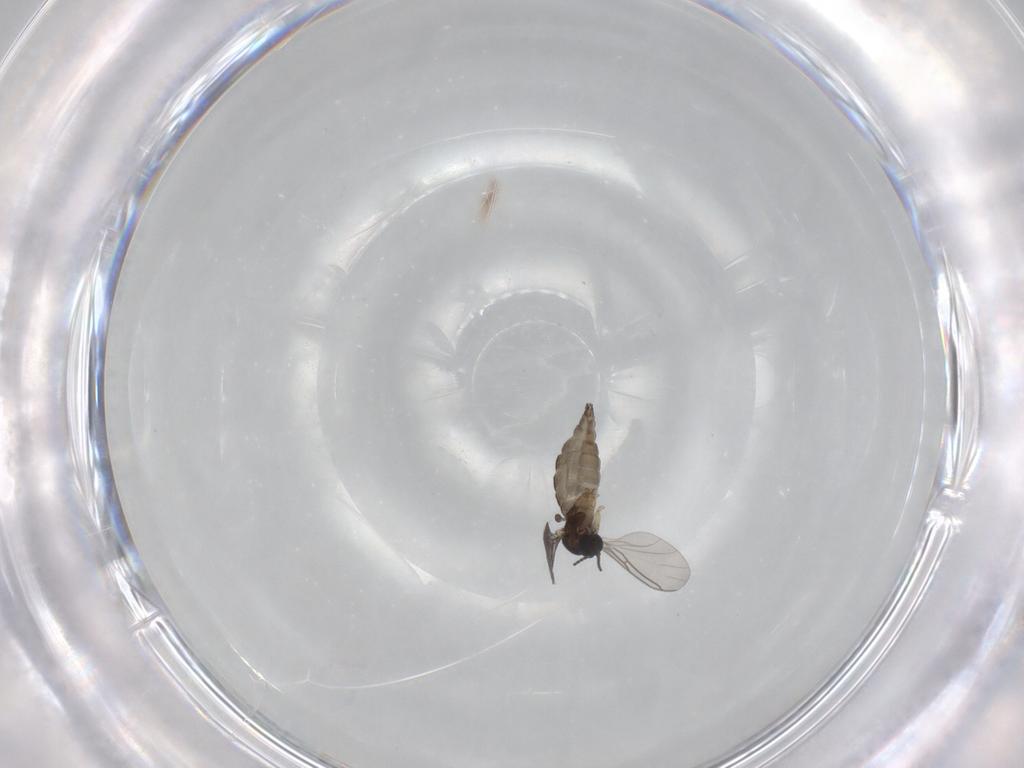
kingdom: Animalia
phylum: Arthropoda
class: Insecta
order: Diptera
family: Sciaridae
